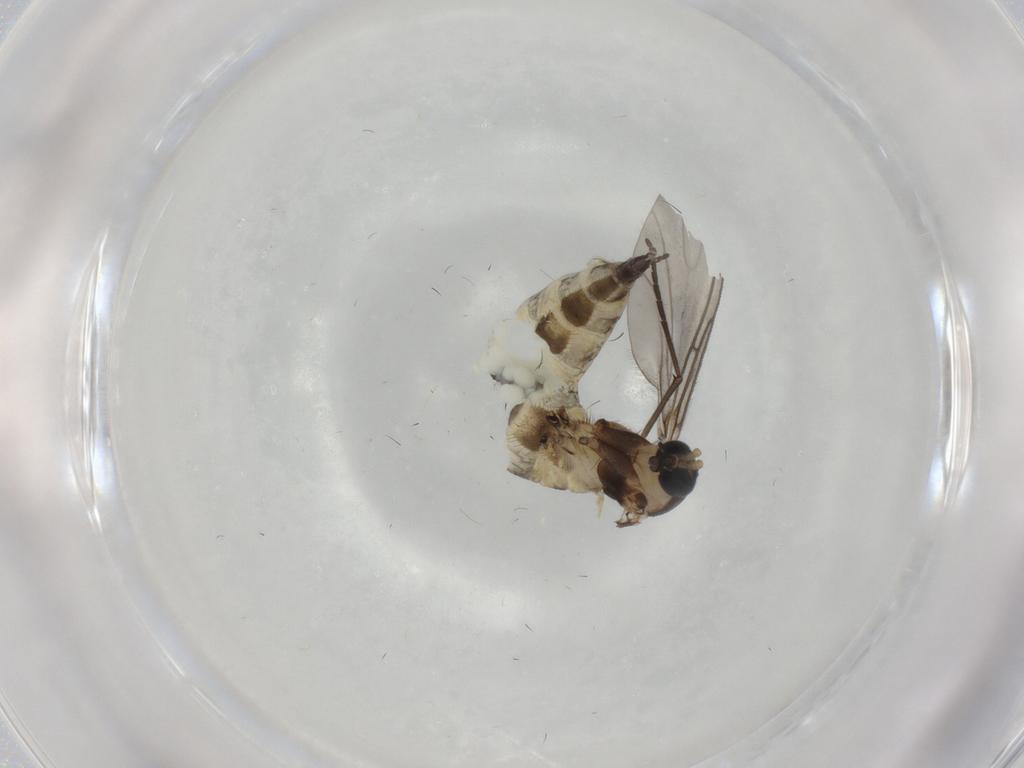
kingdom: Animalia
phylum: Arthropoda
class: Insecta
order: Diptera
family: Sciaridae
